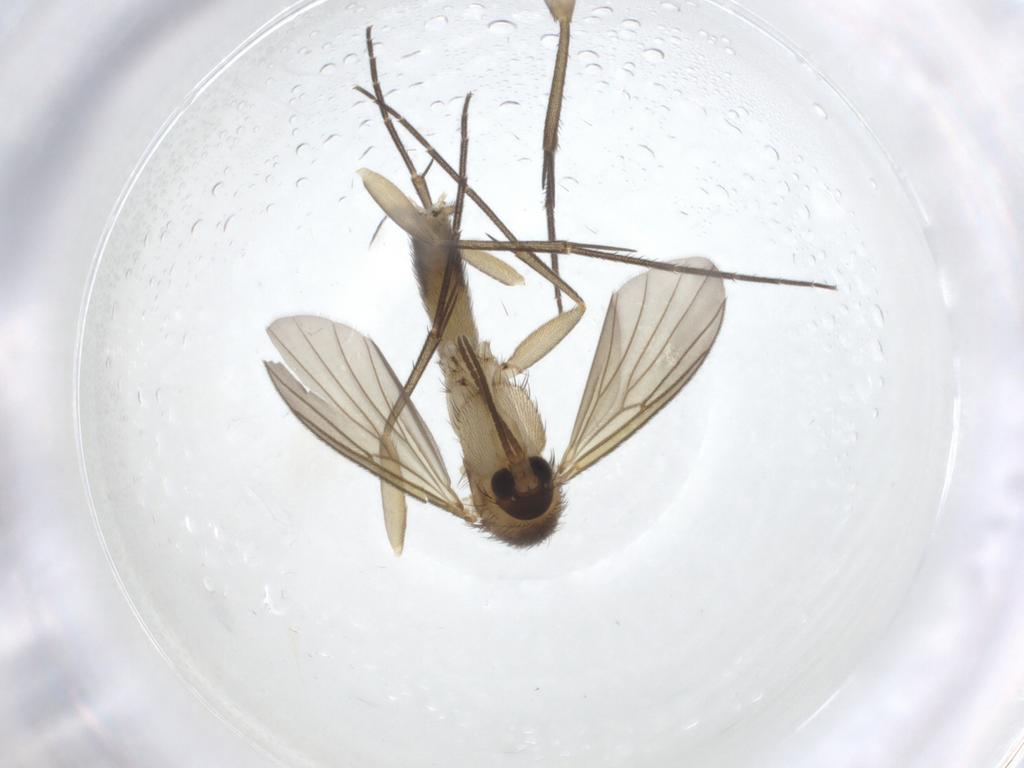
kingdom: Animalia
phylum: Arthropoda
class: Insecta
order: Diptera
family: Mycetophilidae
